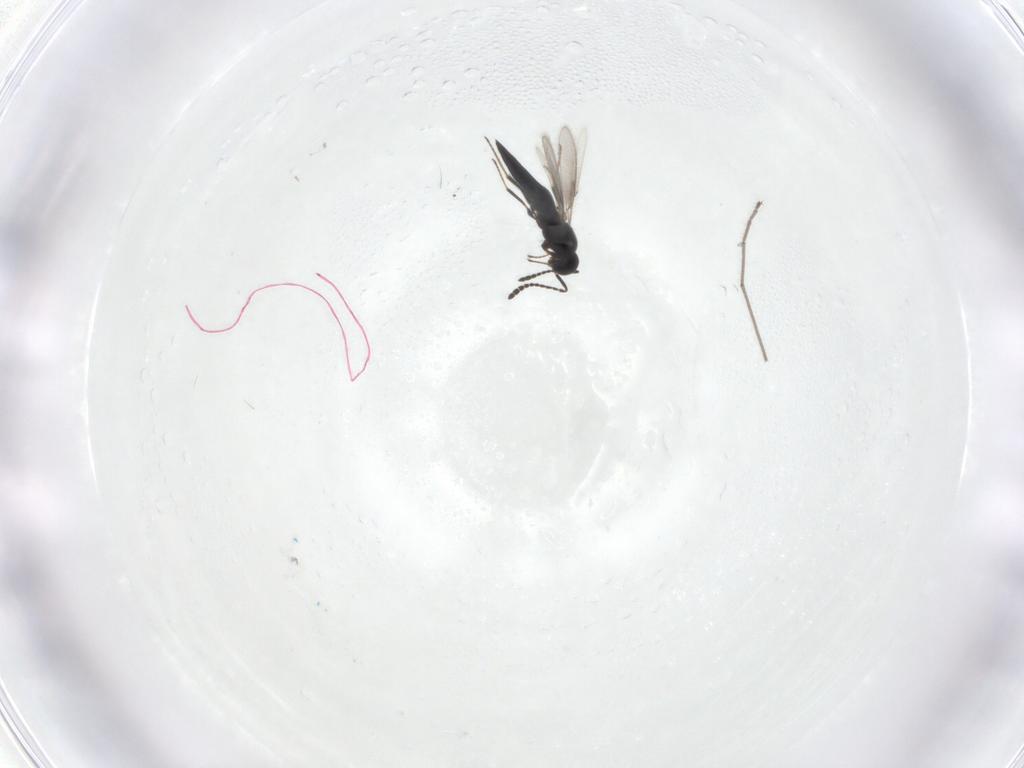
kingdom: Animalia
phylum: Arthropoda
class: Insecta
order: Hymenoptera
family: Scelionidae
